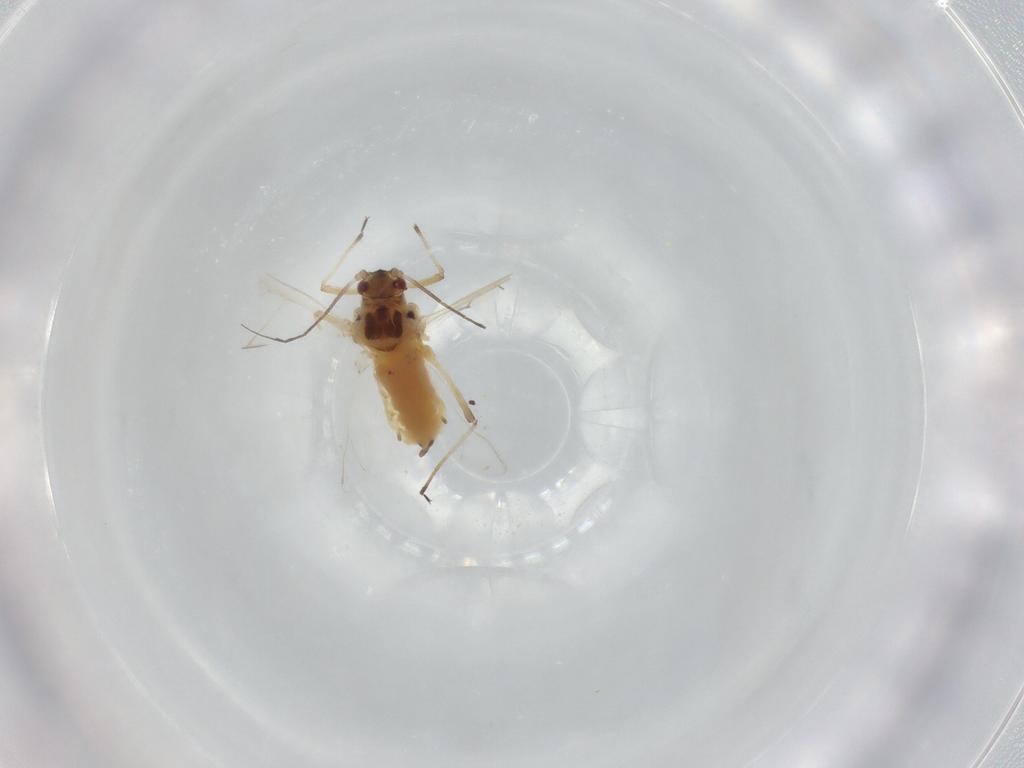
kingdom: Animalia
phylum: Arthropoda
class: Insecta
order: Hemiptera
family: Aphididae
